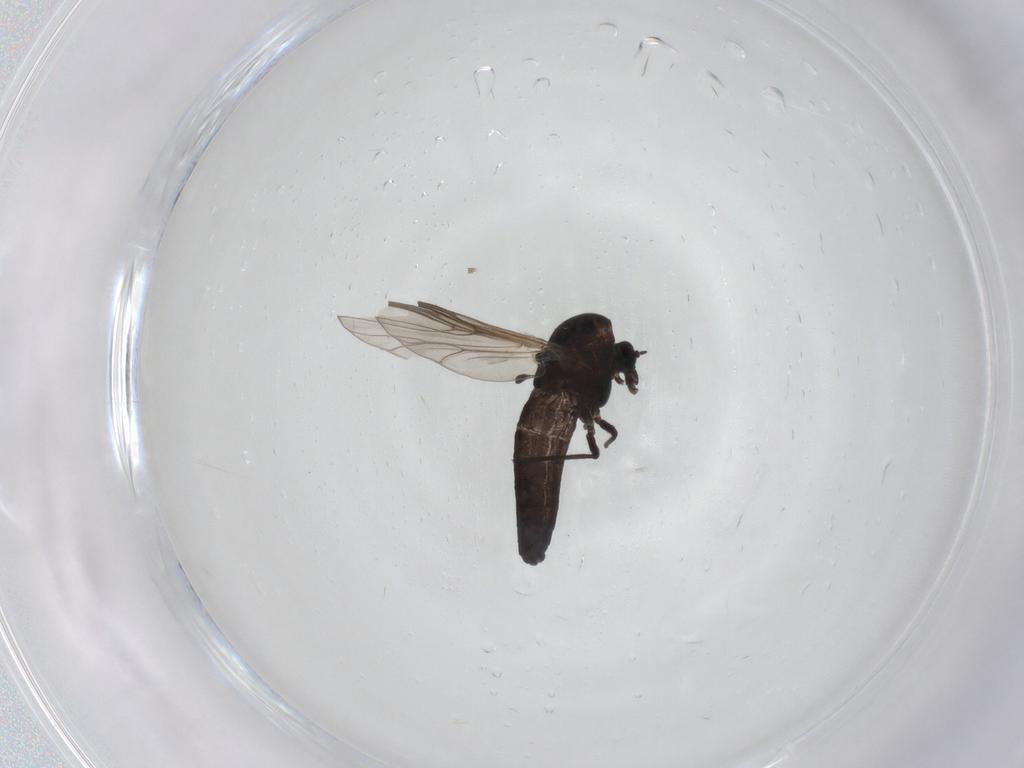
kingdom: Animalia
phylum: Arthropoda
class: Insecta
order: Diptera
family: Chironomidae
